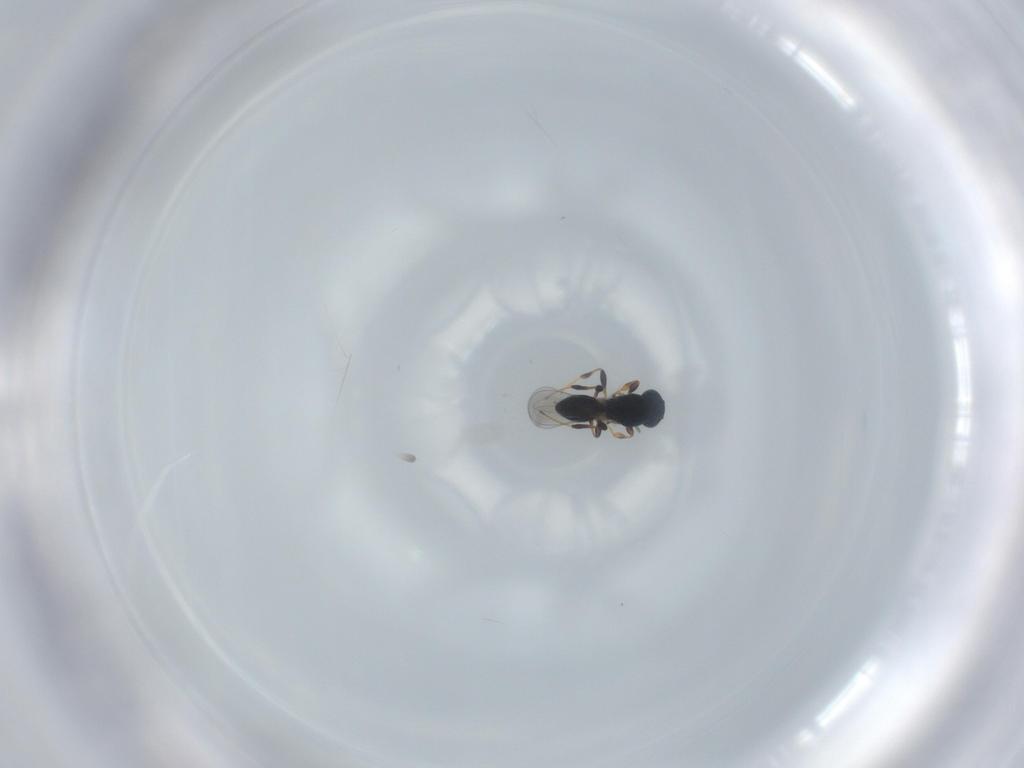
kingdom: Animalia
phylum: Arthropoda
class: Insecta
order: Hymenoptera
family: Platygastridae
